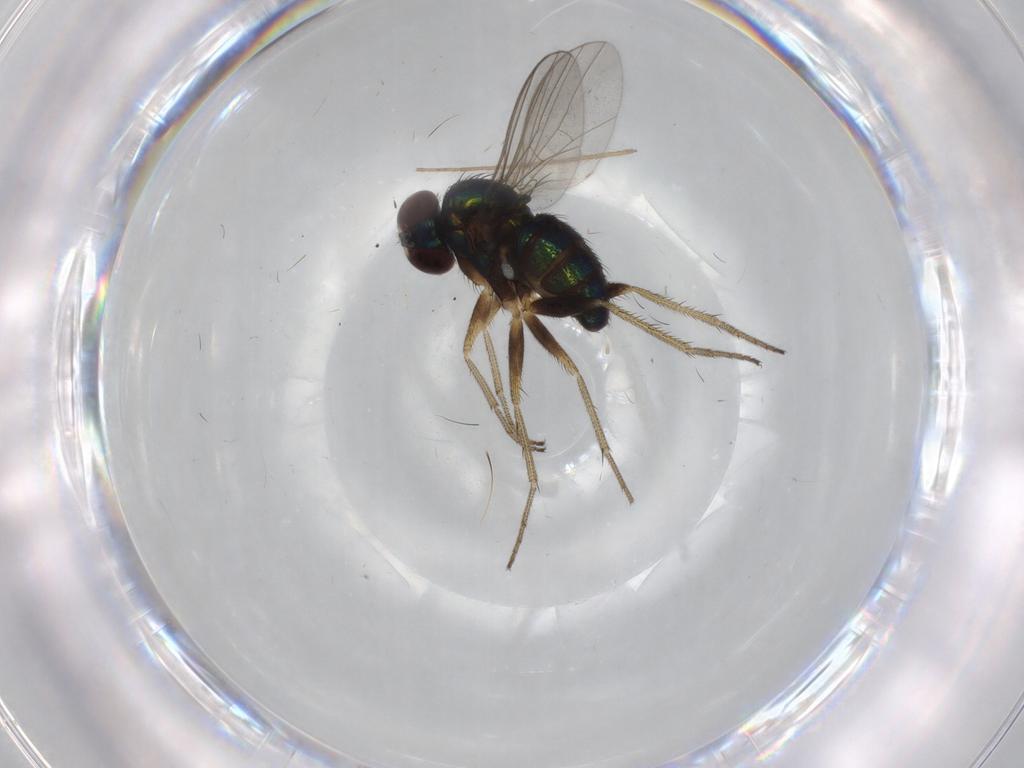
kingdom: Animalia
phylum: Arthropoda
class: Insecta
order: Diptera
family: Chironomidae
